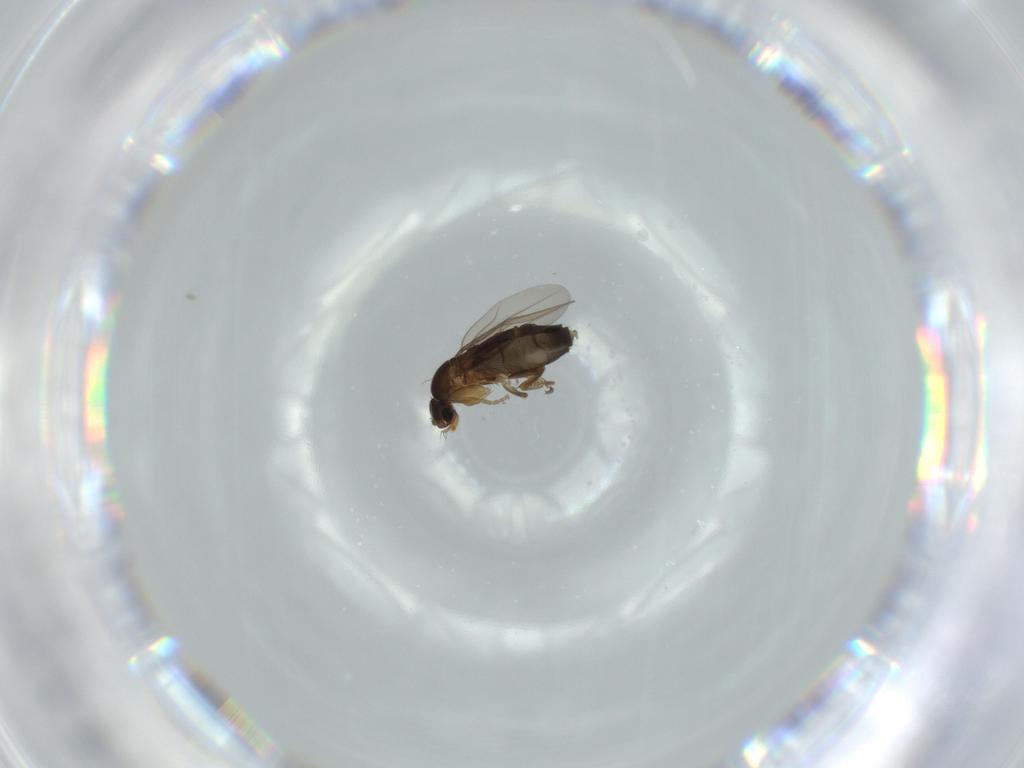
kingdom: Animalia
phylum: Arthropoda
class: Insecta
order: Diptera
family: Phoridae
